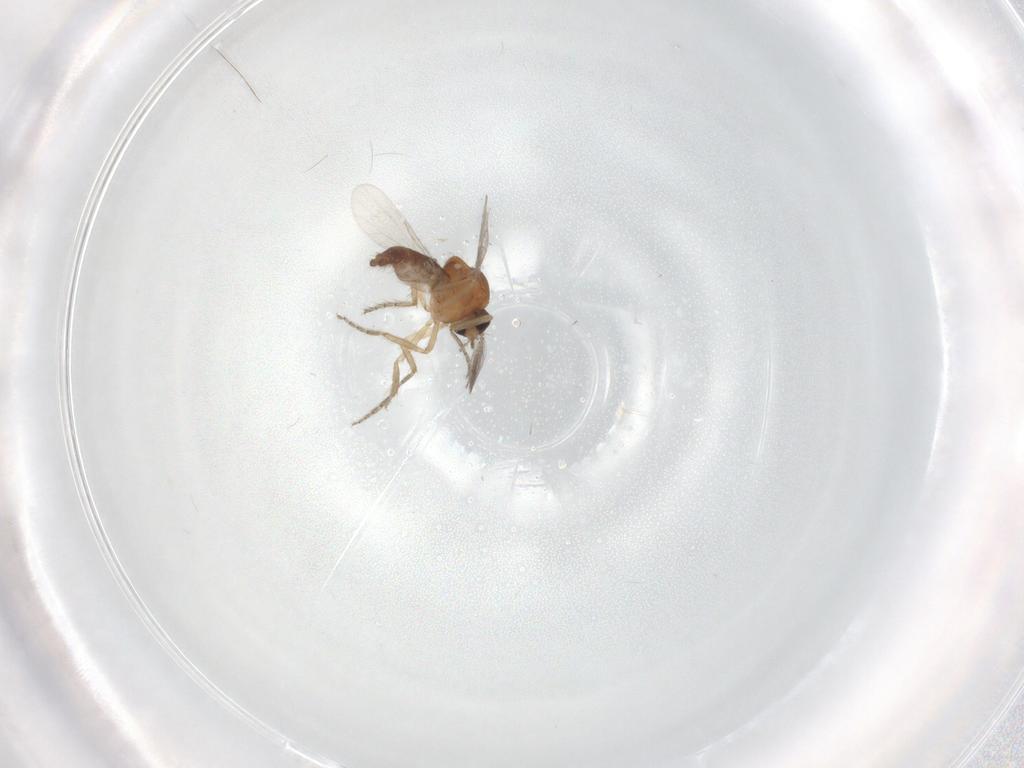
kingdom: Animalia
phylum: Arthropoda
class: Insecta
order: Diptera
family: Ceratopogonidae
